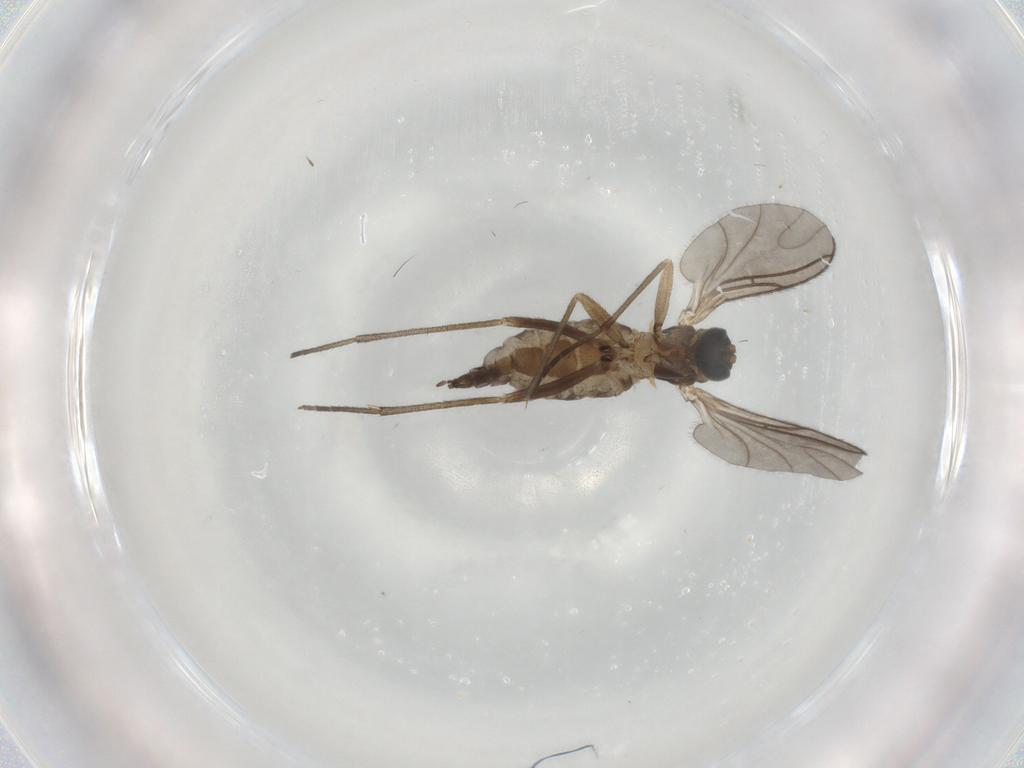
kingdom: Animalia
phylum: Arthropoda
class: Insecta
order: Diptera
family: Sciaridae
